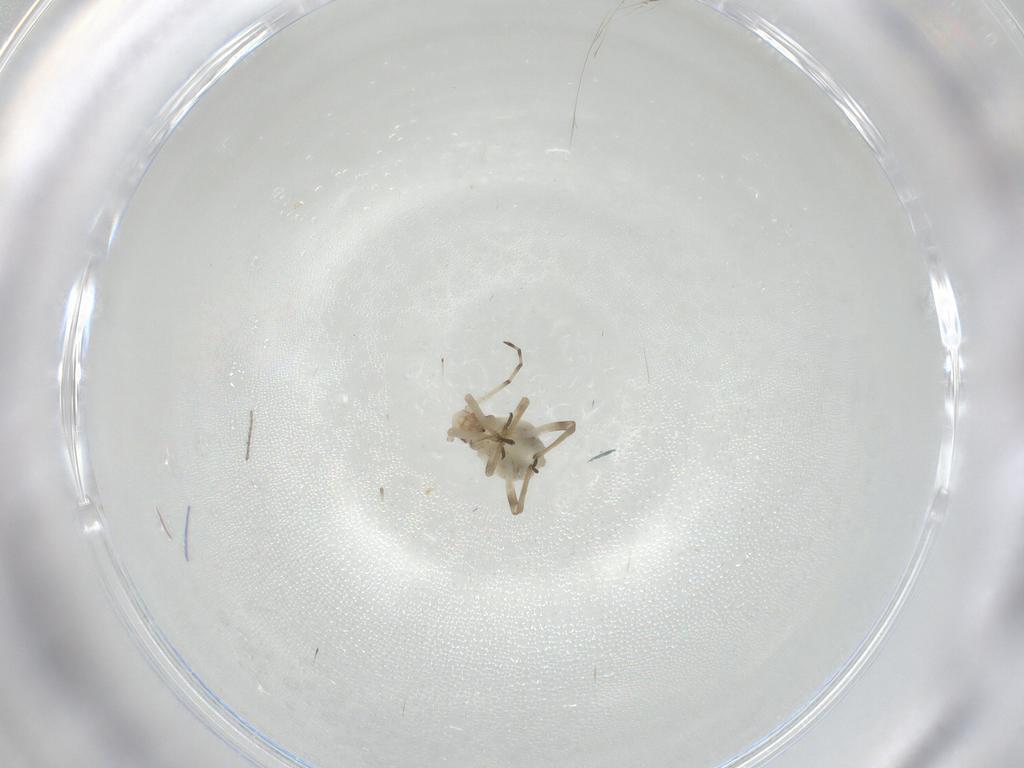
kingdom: Animalia
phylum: Arthropoda
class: Insecta
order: Hemiptera
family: Aphididae
